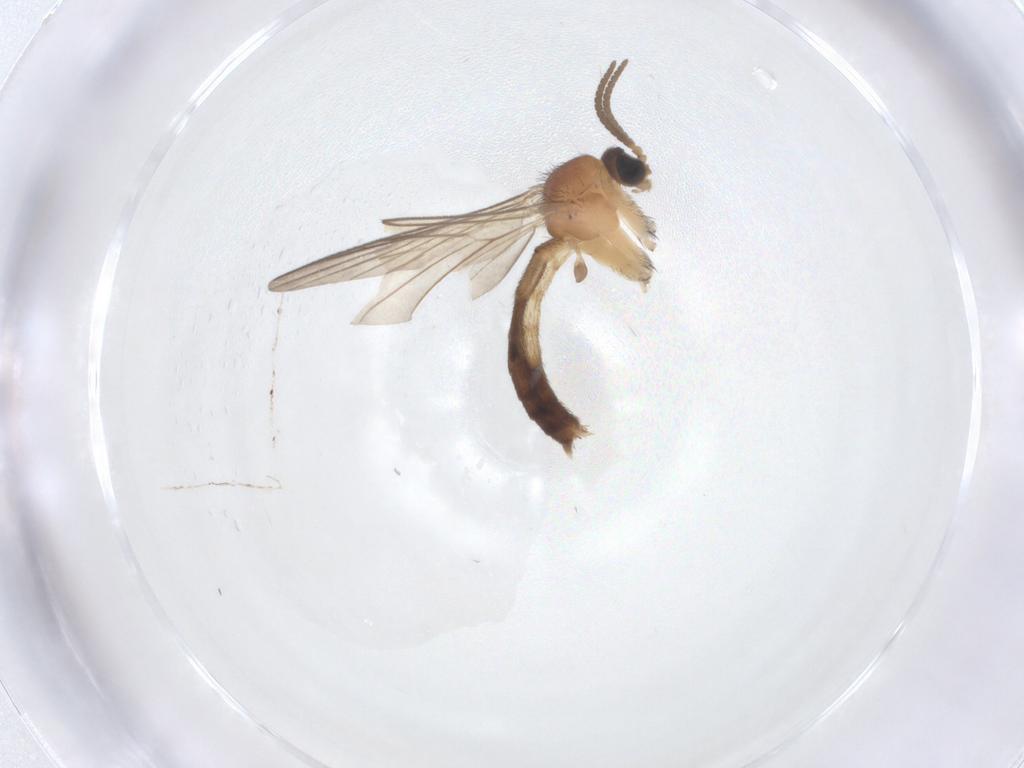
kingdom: Animalia
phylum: Arthropoda
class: Insecta
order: Diptera
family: Keroplatidae
